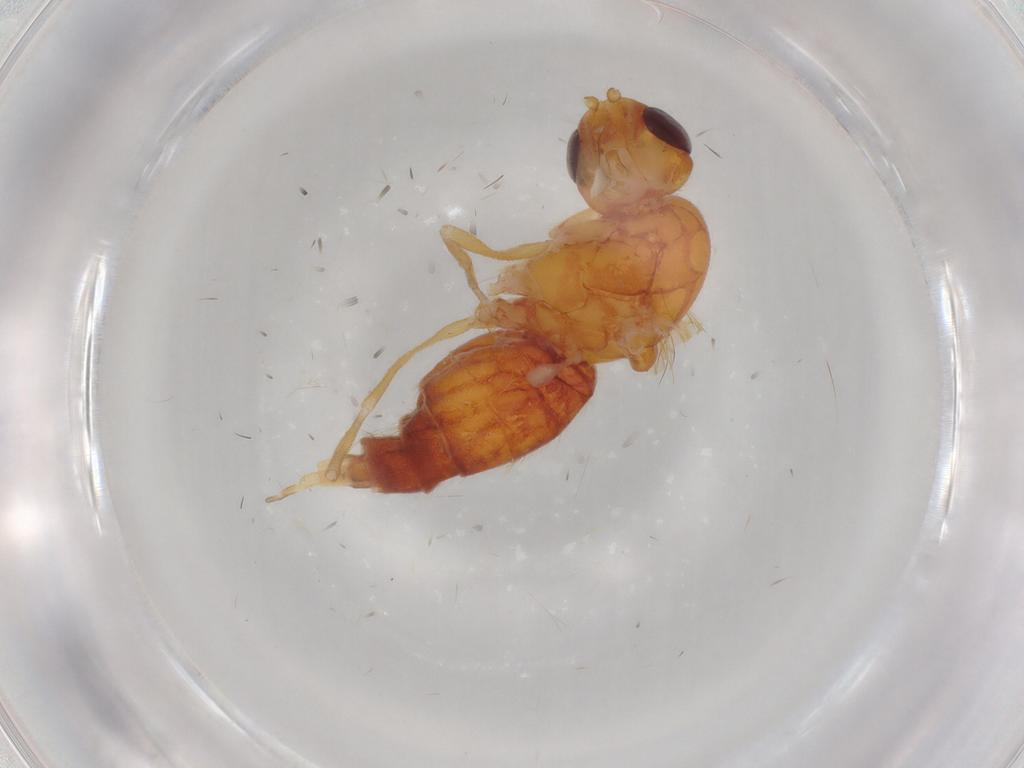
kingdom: Animalia
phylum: Arthropoda
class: Insecta
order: Diptera
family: Psilidae
